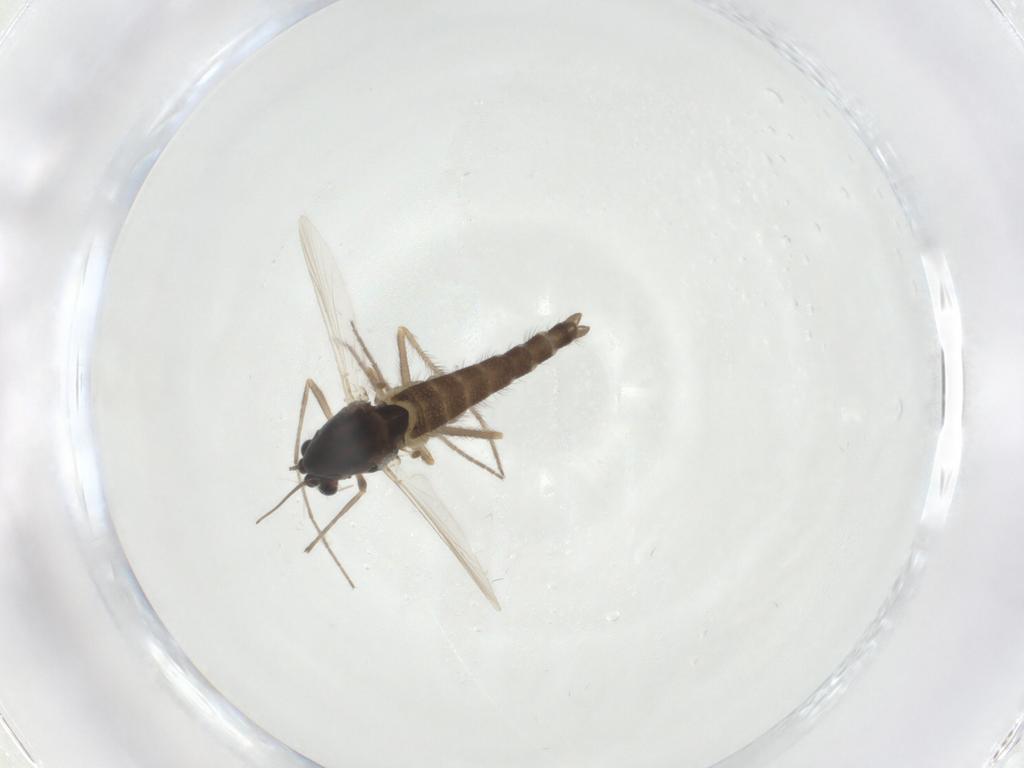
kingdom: Animalia
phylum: Arthropoda
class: Insecta
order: Diptera
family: Chironomidae
